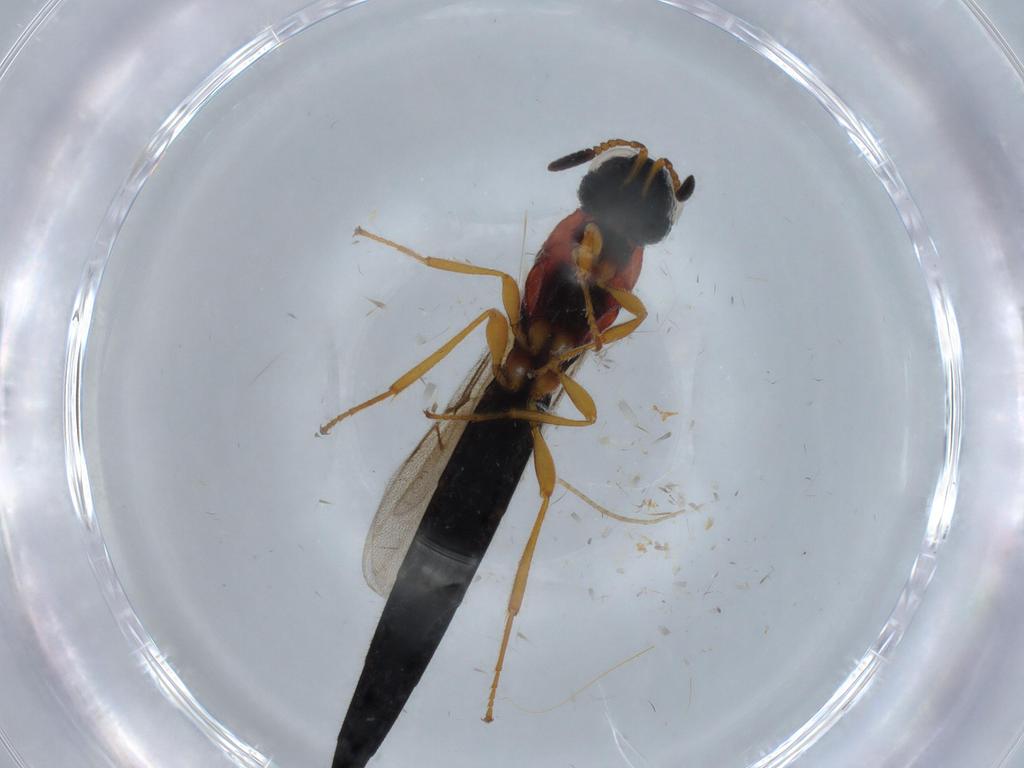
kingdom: Animalia
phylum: Arthropoda
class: Insecta
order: Hymenoptera
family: Scelionidae
